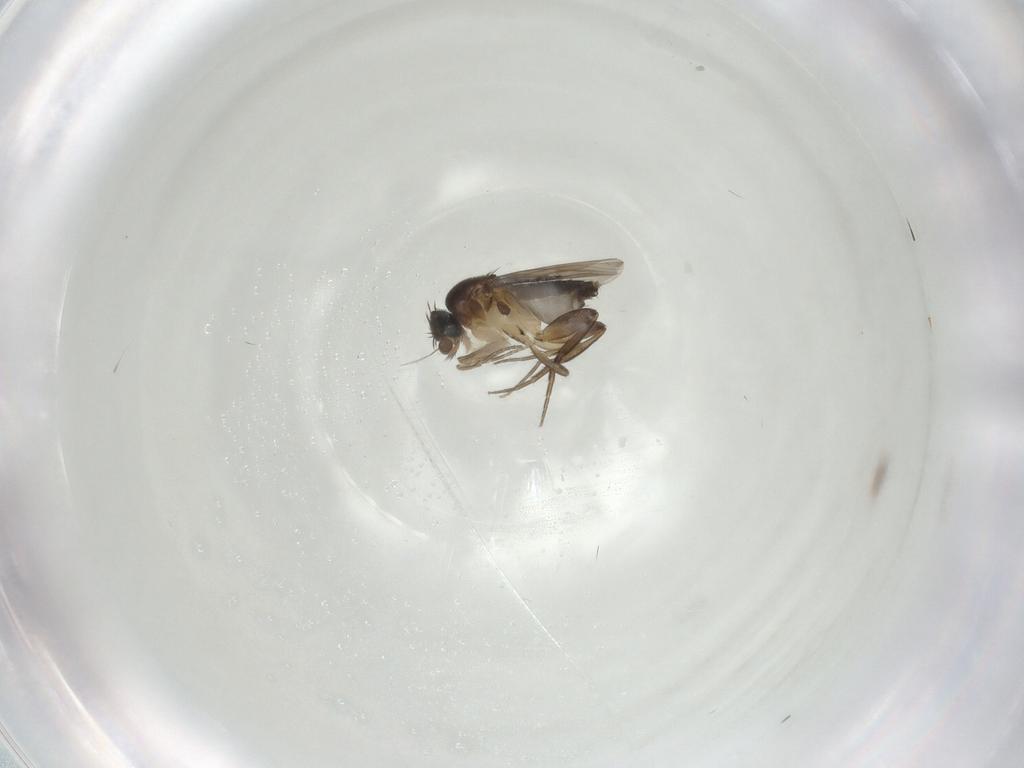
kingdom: Animalia
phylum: Arthropoda
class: Insecta
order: Diptera
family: Phoridae
